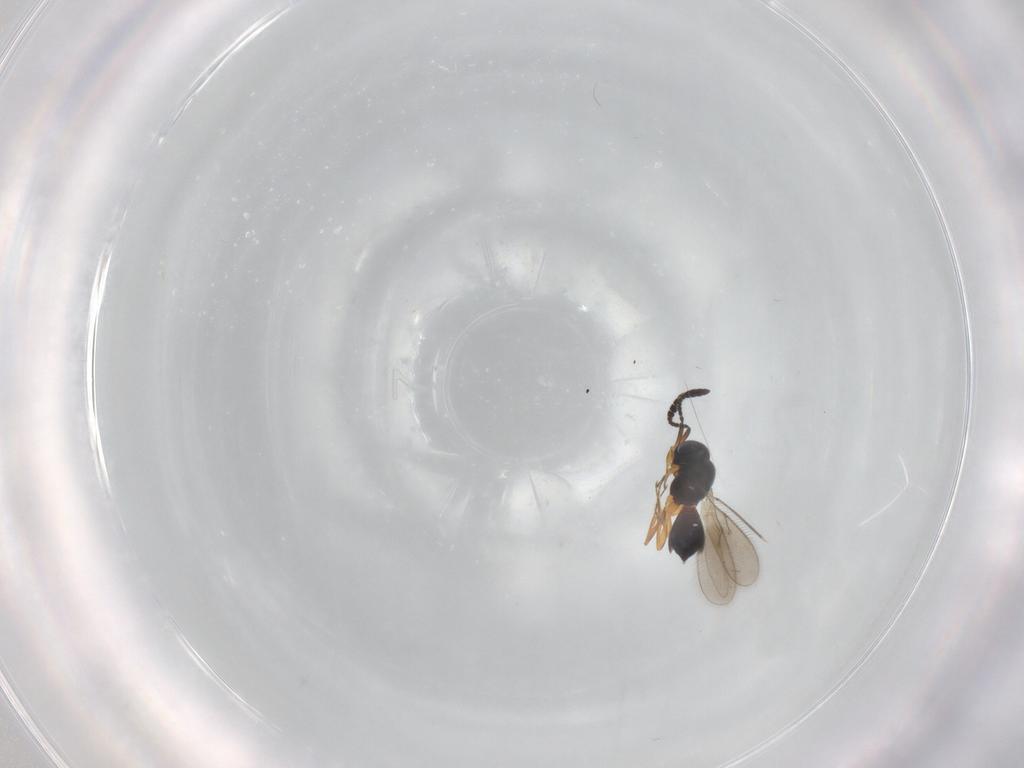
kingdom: Animalia
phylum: Arthropoda
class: Insecta
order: Hymenoptera
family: Scelionidae
